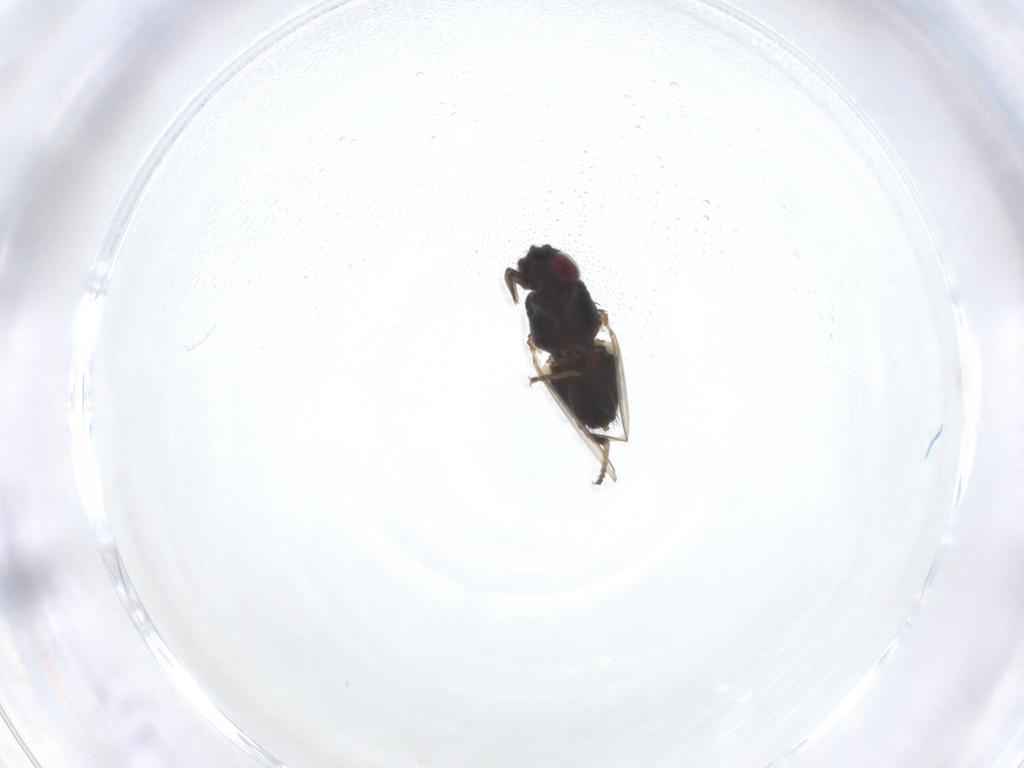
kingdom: Animalia
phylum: Arthropoda
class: Insecta
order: Diptera
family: Milichiidae
